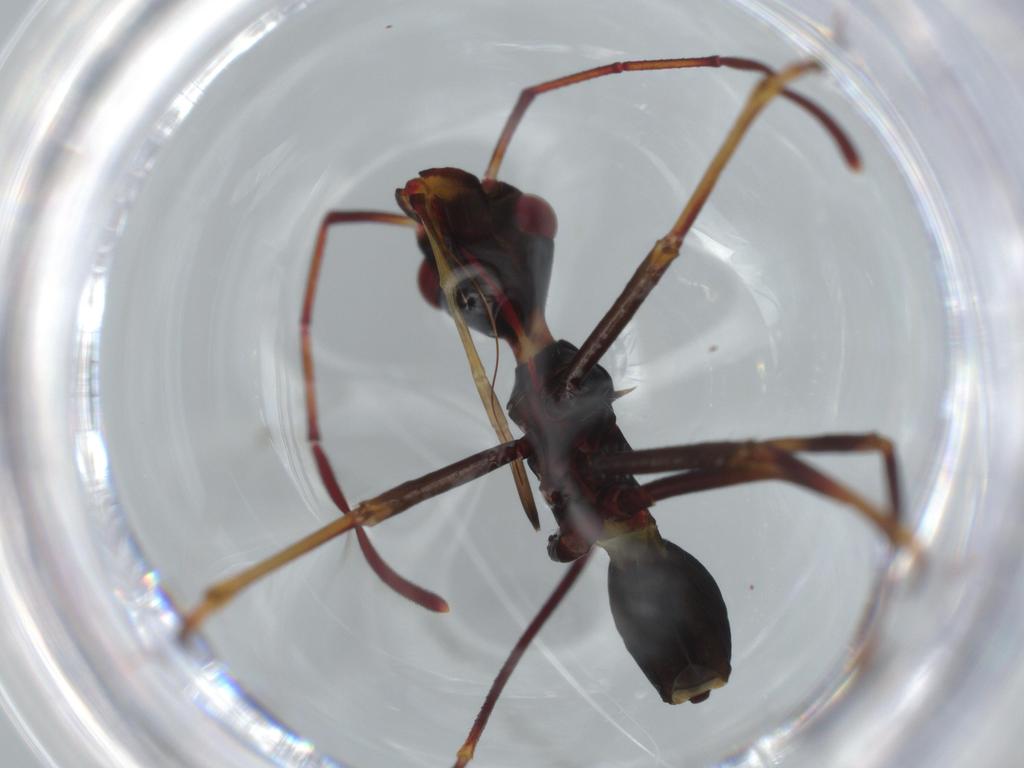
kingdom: Animalia
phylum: Arthropoda
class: Insecta
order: Hemiptera
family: Alydidae
